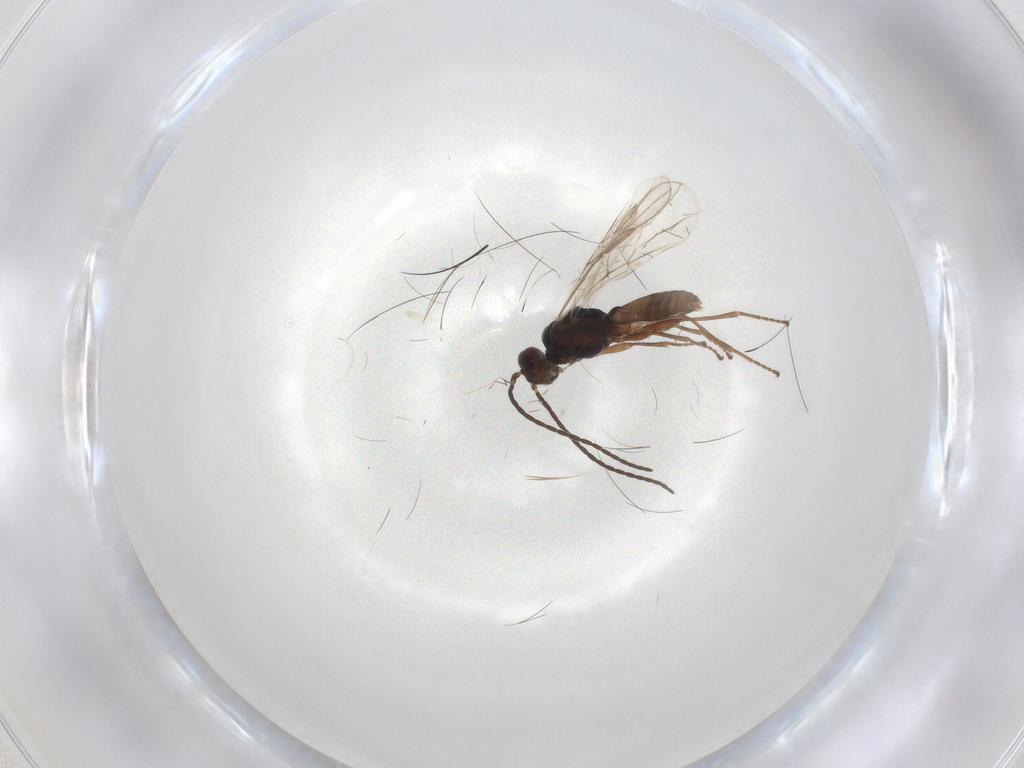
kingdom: Animalia
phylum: Arthropoda
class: Insecta
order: Hymenoptera
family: Braconidae
